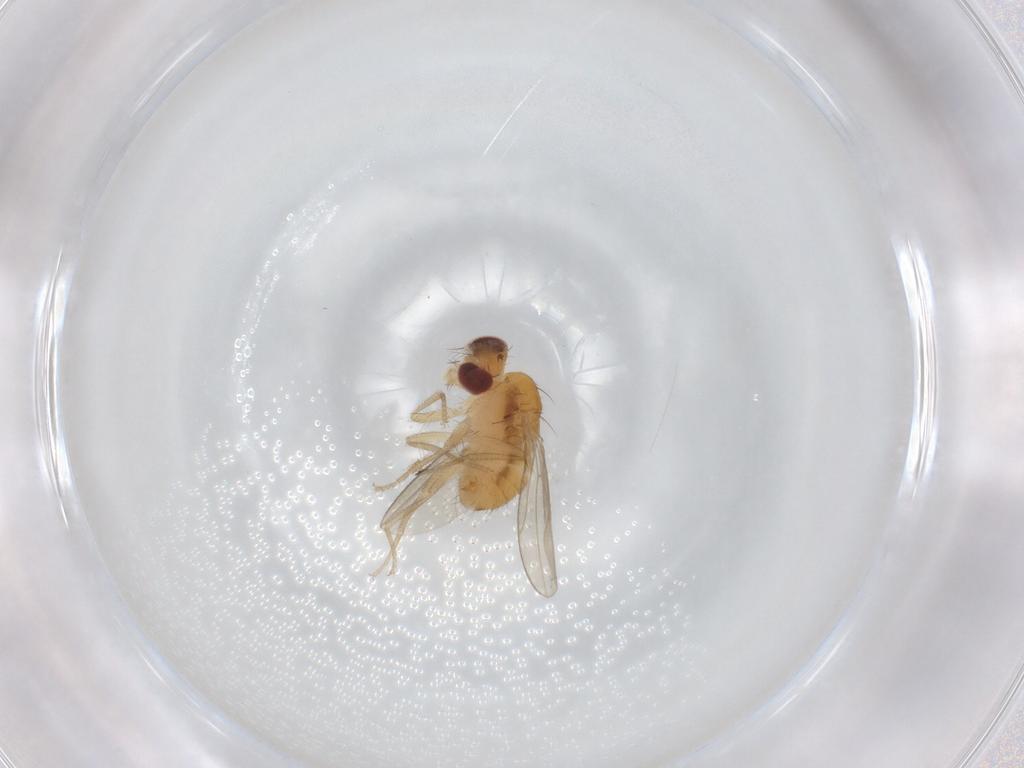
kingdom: Animalia
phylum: Arthropoda
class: Insecta
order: Diptera
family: Drosophilidae
